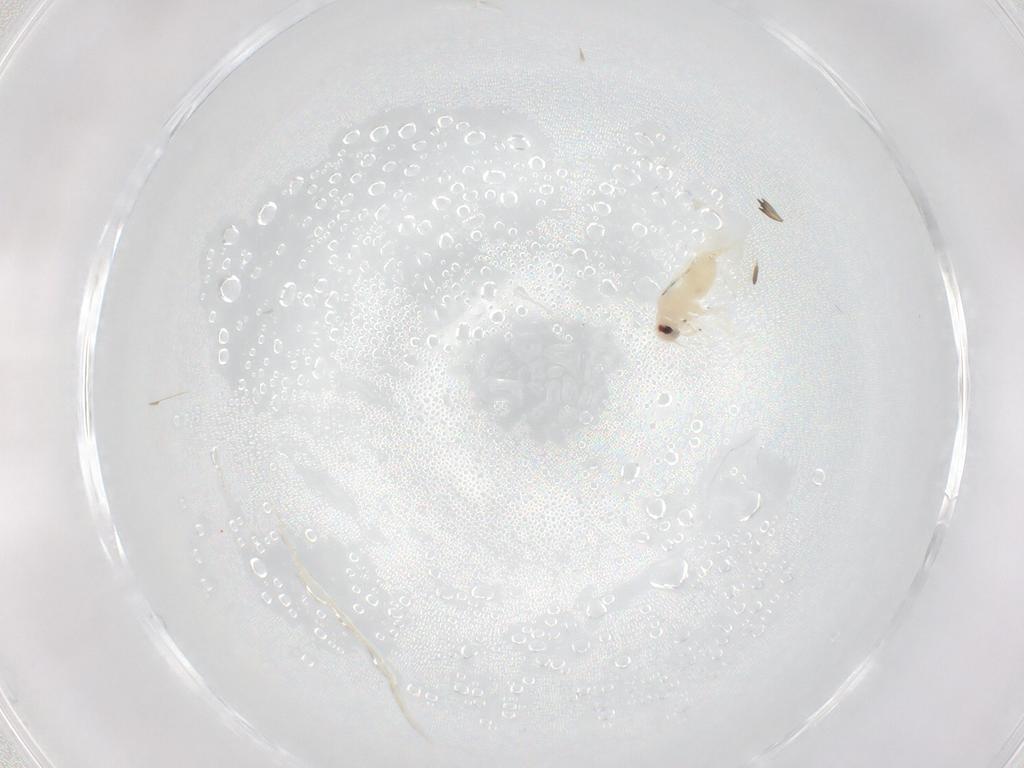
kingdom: Animalia
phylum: Arthropoda
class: Insecta
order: Hemiptera
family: Aleyrodidae
